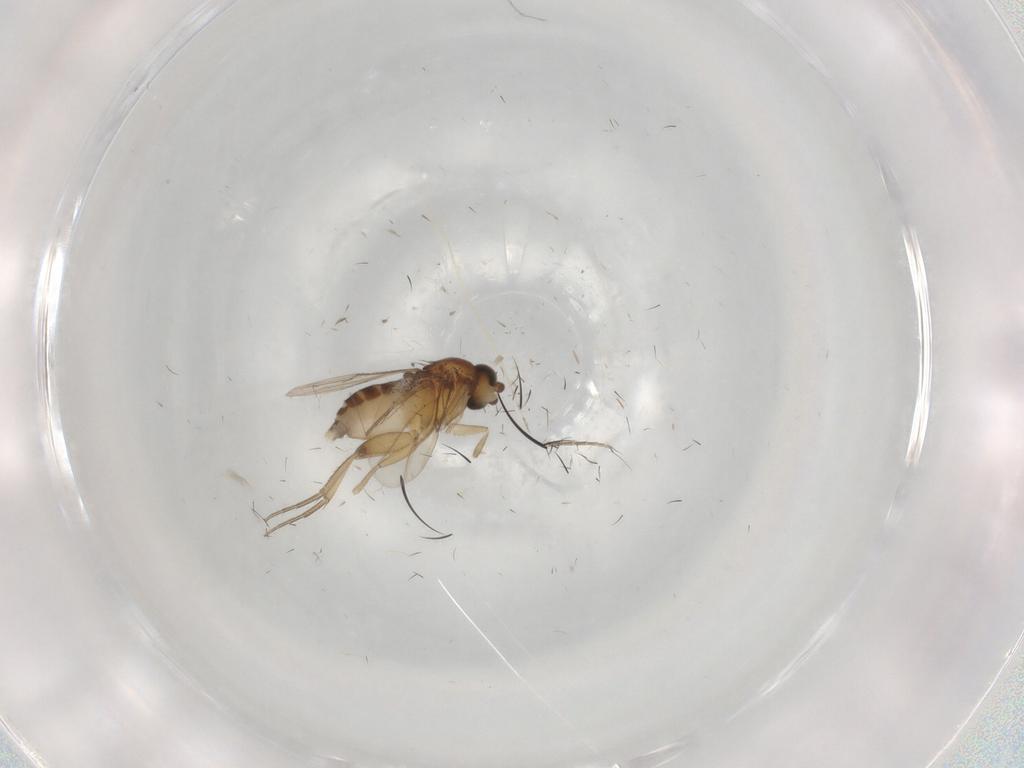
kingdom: Animalia
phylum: Arthropoda
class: Insecta
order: Diptera
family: Phoridae
